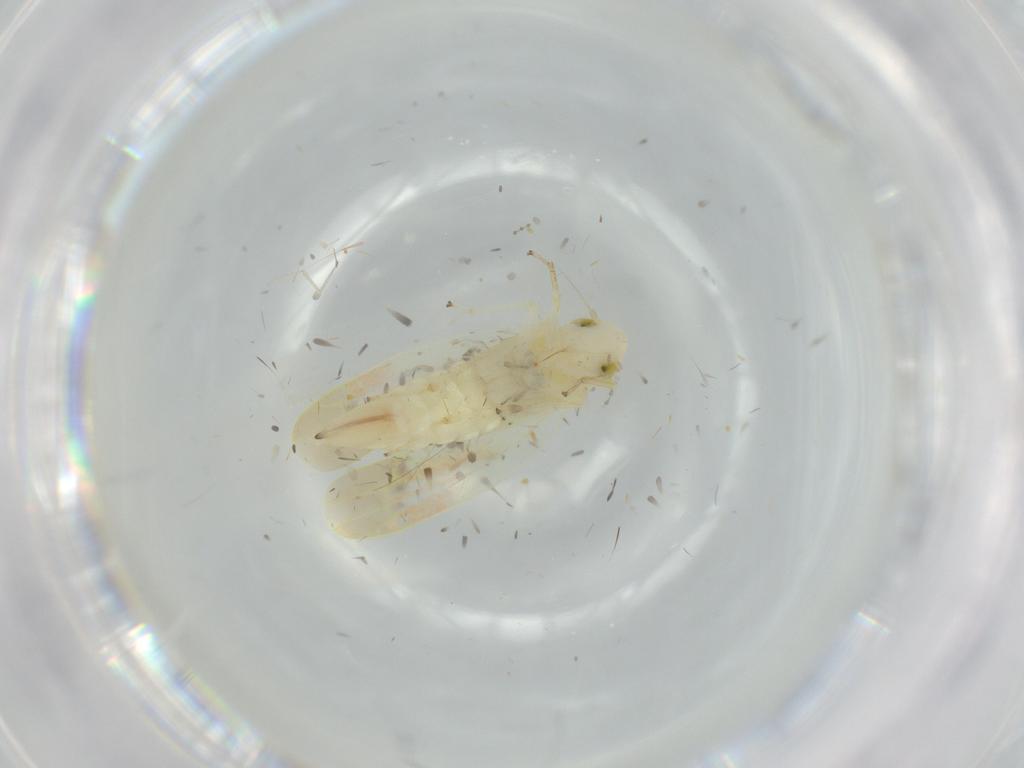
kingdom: Animalia
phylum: Arthropoda
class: Insecta
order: Hemiptera
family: Cicadellidae
